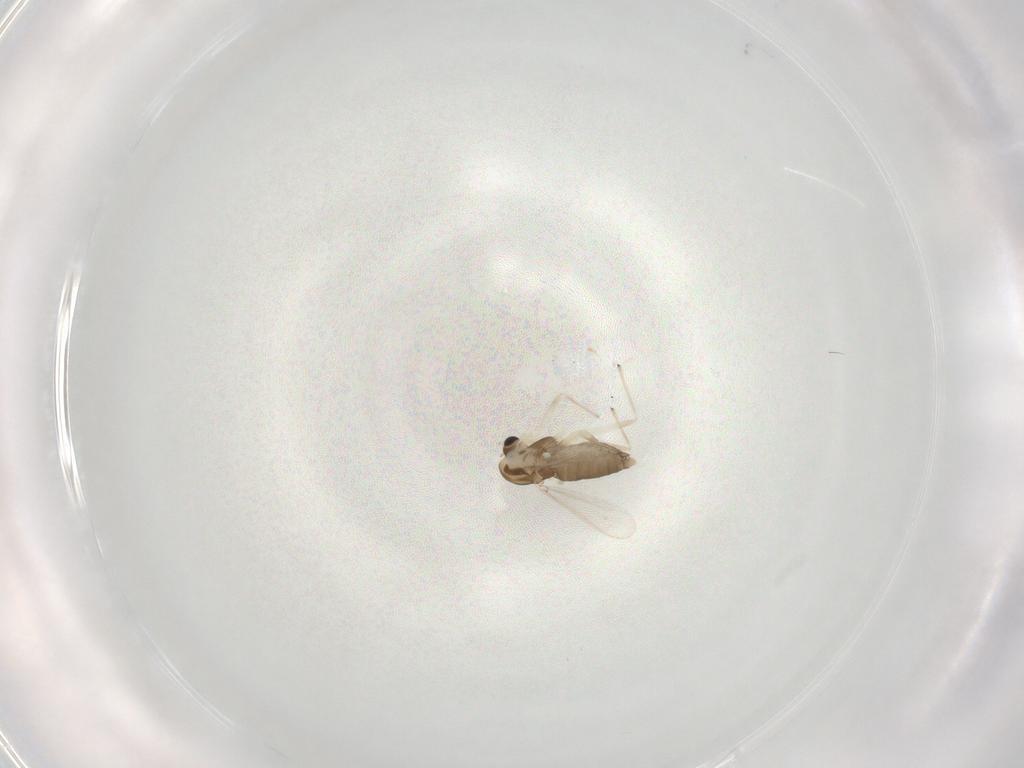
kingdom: Animalia
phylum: Arthropoda
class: Insecta
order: Diptera
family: Chironomidae
